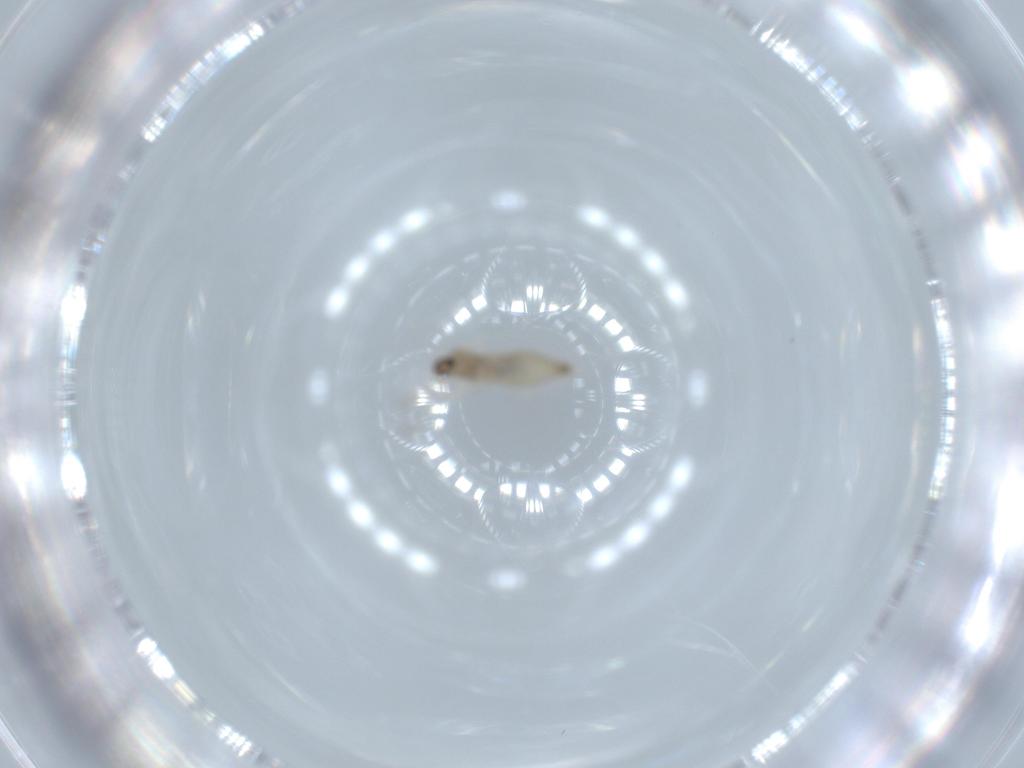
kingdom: Animalia
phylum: Arthropoda
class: Insecta
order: Diptera
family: Cecidomyiidae
